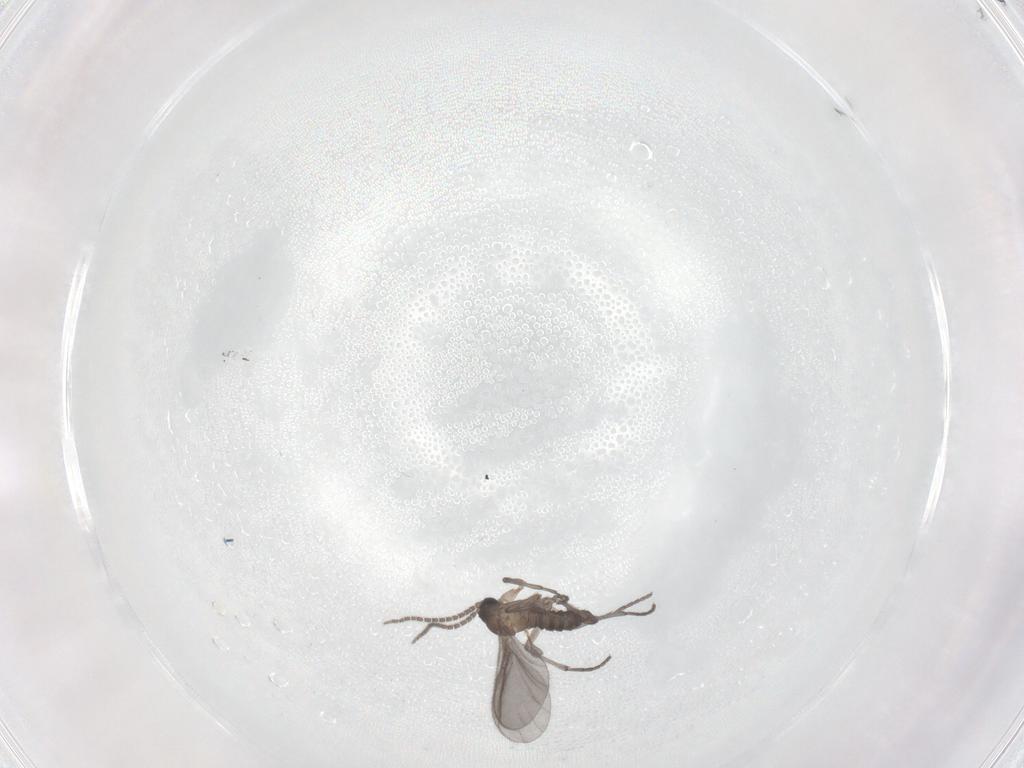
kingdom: Animalia
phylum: Arthropoda
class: Insecta
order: Diptera
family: Sciaridae
